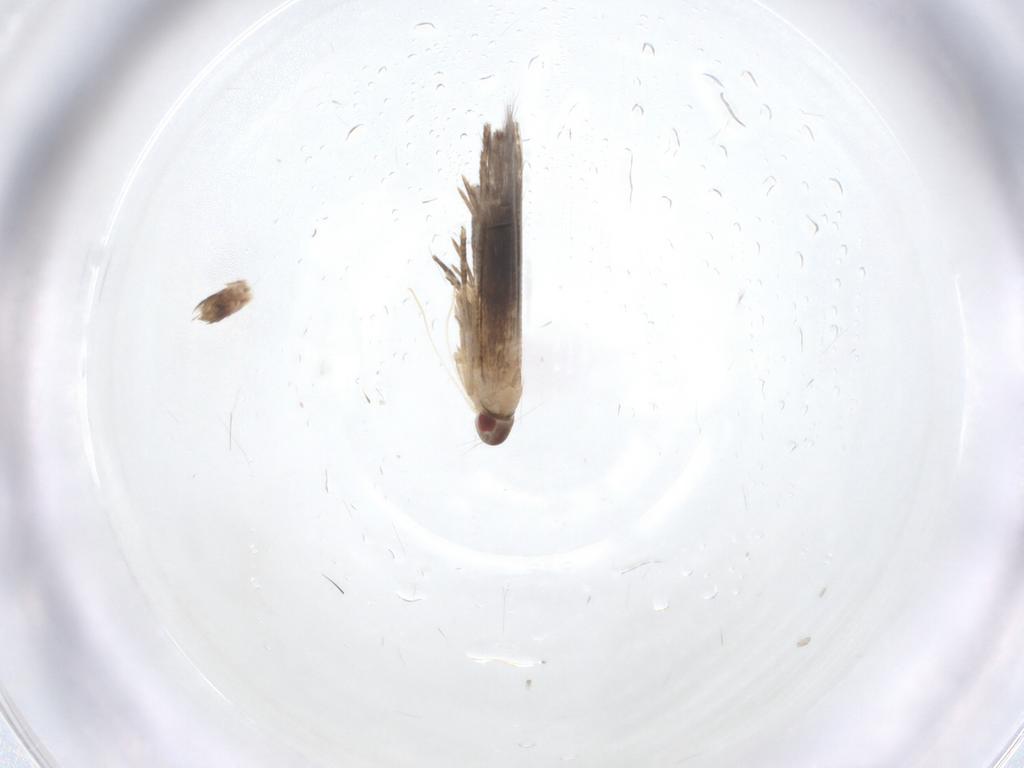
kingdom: Animalia
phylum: Arthropoda
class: Insecta
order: Lepidoptera
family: Cosmopterigidae
